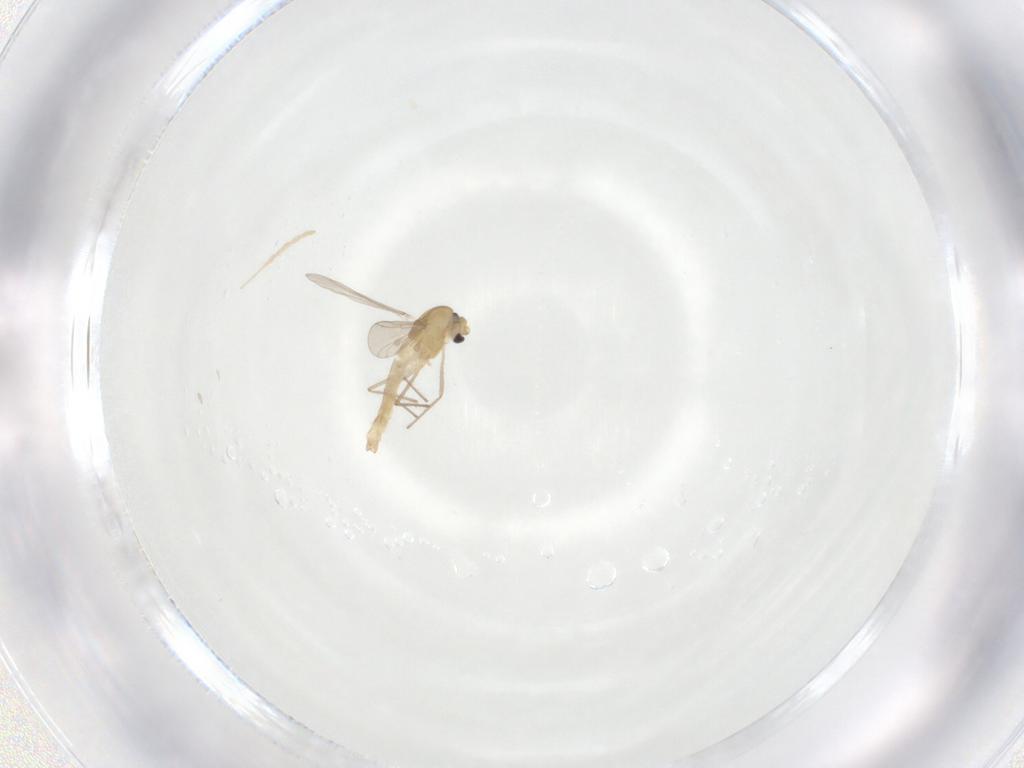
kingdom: Animalia
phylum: Arthropoda
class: Insecta
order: Diptera
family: Chironomidae
